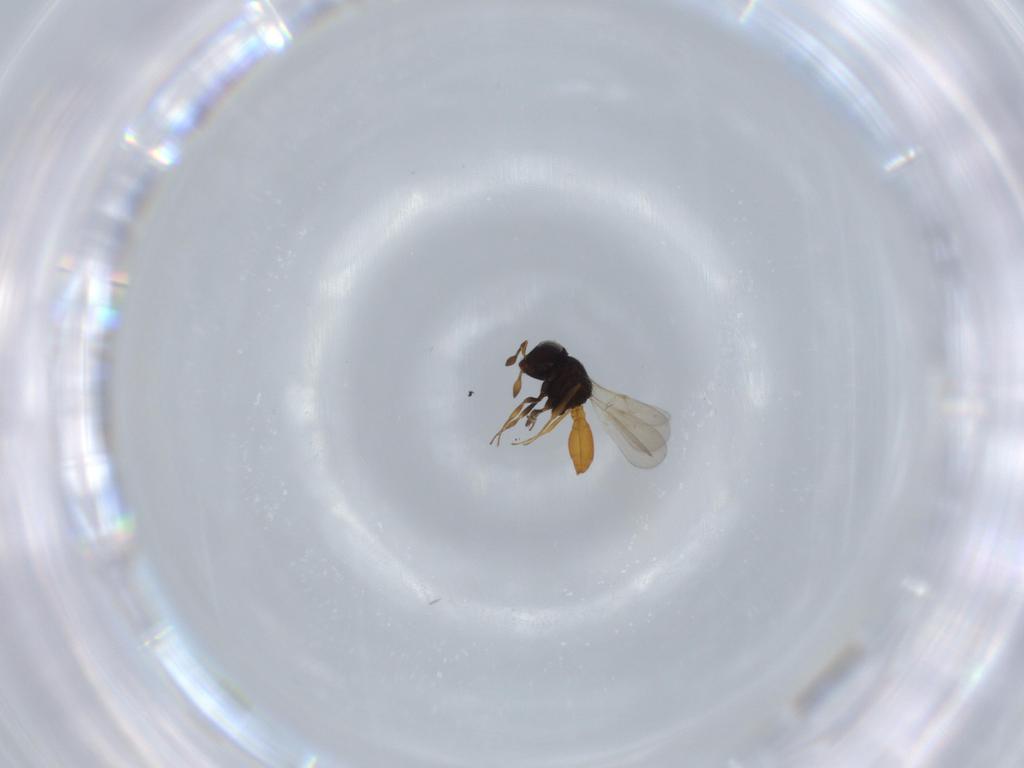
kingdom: Animalia
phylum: Arthropoda
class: Insecta
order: Hymenoptera
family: Scelionidae
